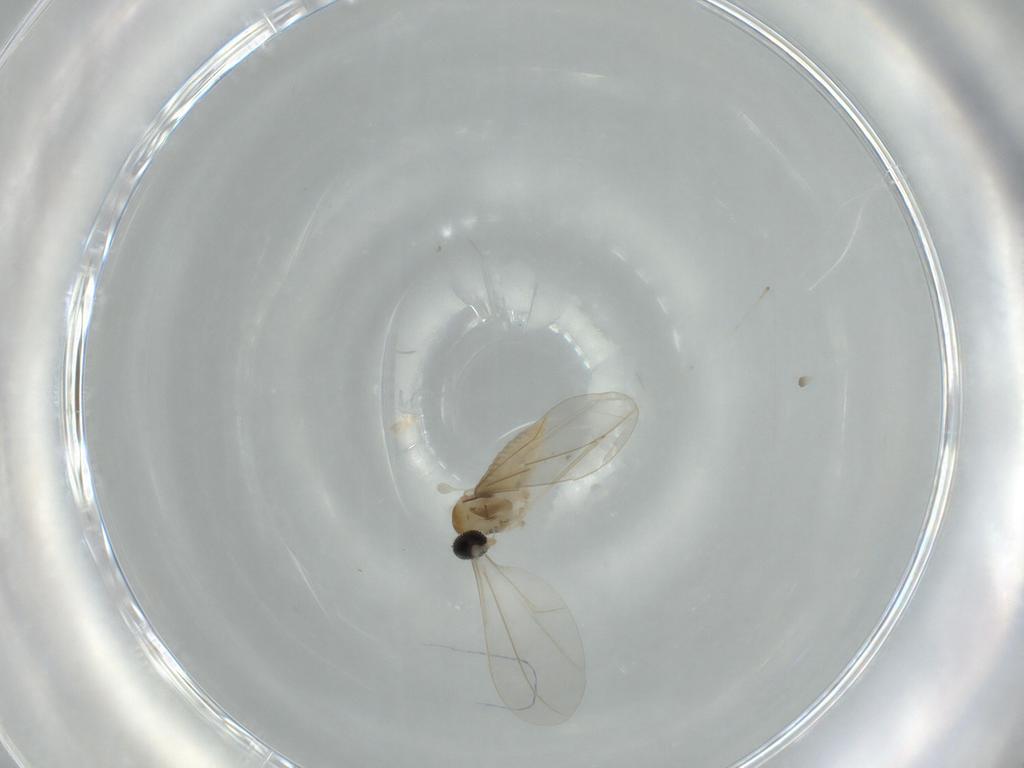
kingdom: Animalia
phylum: Arthropoda
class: Insecta
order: Diptera
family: Cecidomyiidae
